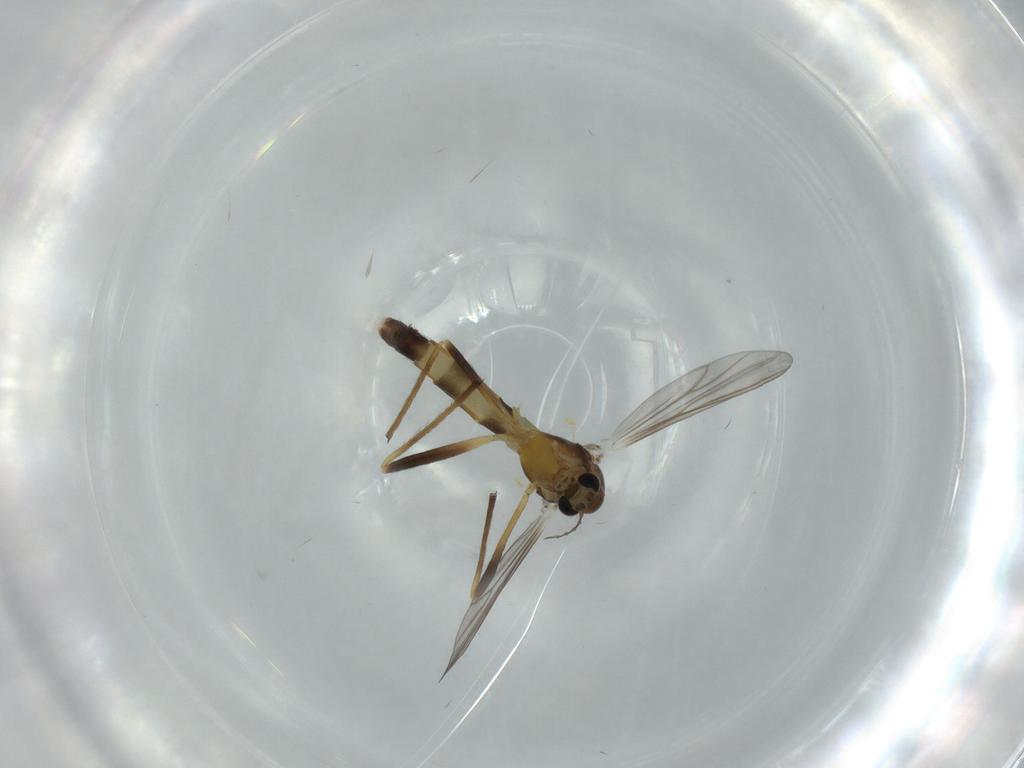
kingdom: Animalia
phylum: Arthropoda
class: Insecta
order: Diptera
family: Chironomidae
